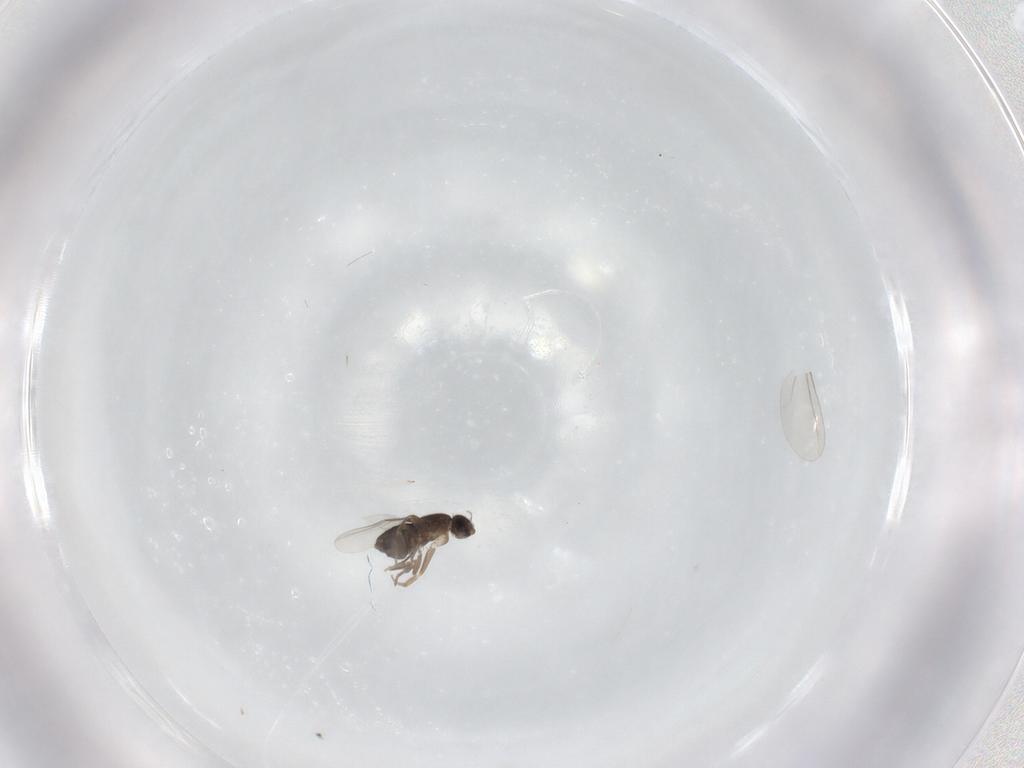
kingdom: Animalia
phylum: Arthropoda
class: Insecta
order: Diptera
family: Phoridae
